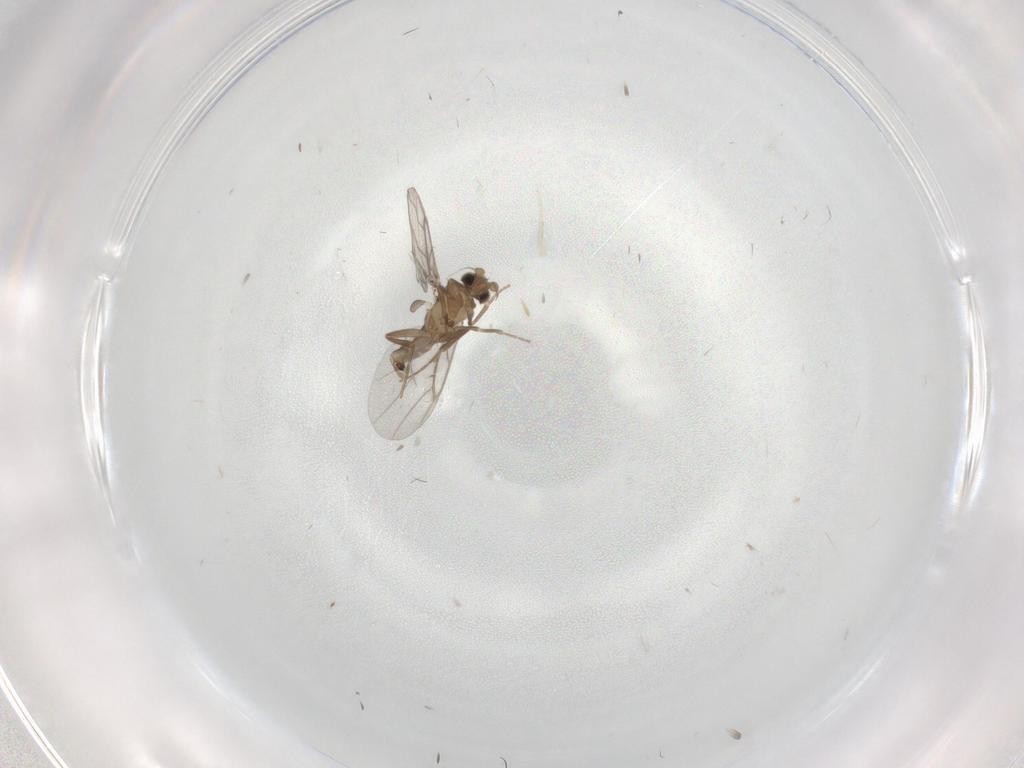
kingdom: Animalia
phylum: Arthropoda
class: Insecta
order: Diptera
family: Psychodidae
